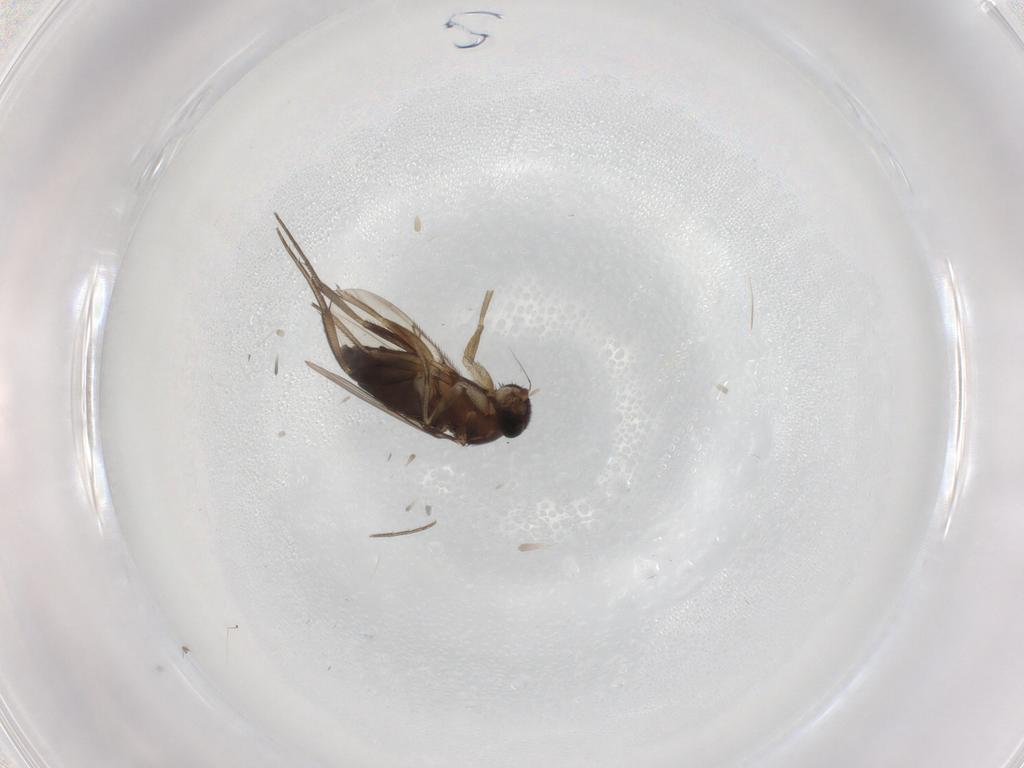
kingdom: Animalia
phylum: Arthropoda
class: Insecta
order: Diptera
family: Phoridae
